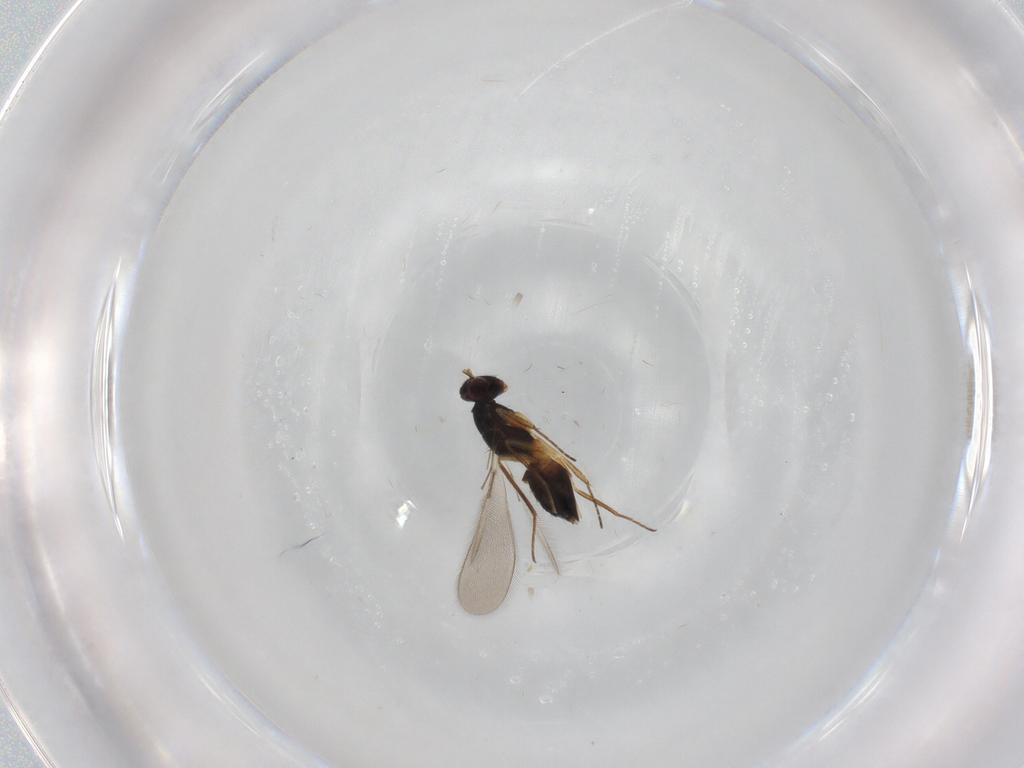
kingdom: Animalia
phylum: Arthropoda
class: Insecta
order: Hymenoptera
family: Mymaridae
